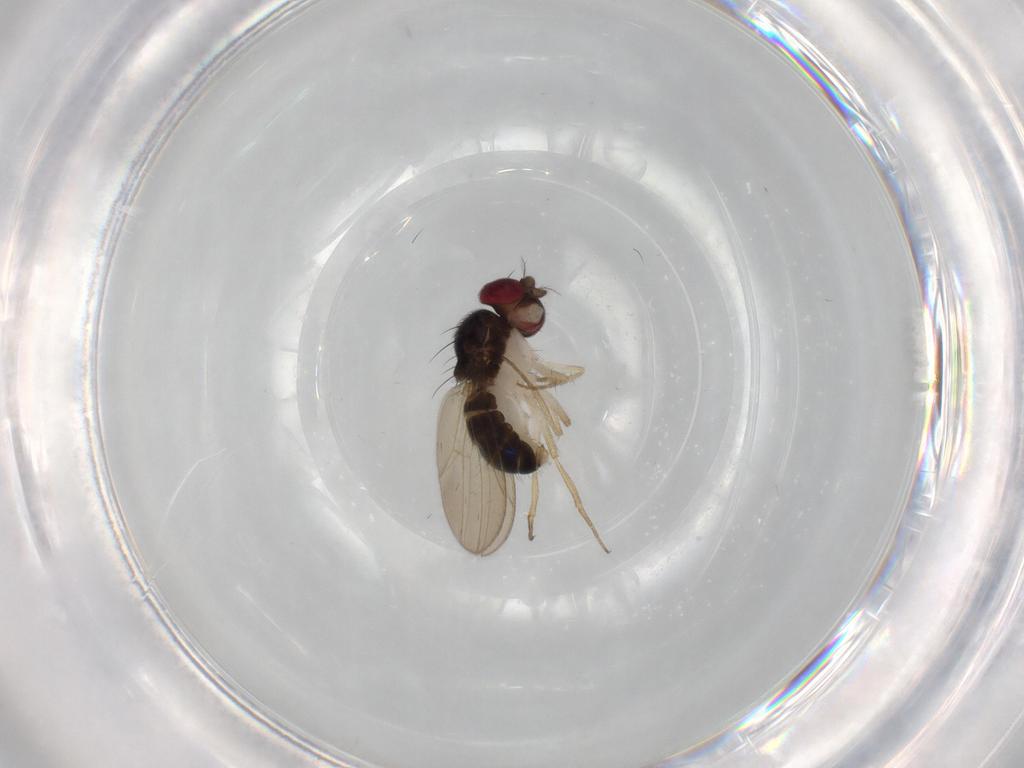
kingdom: Animalia
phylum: Arthropoda
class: Insecta
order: Diptera
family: Drosophilidae
